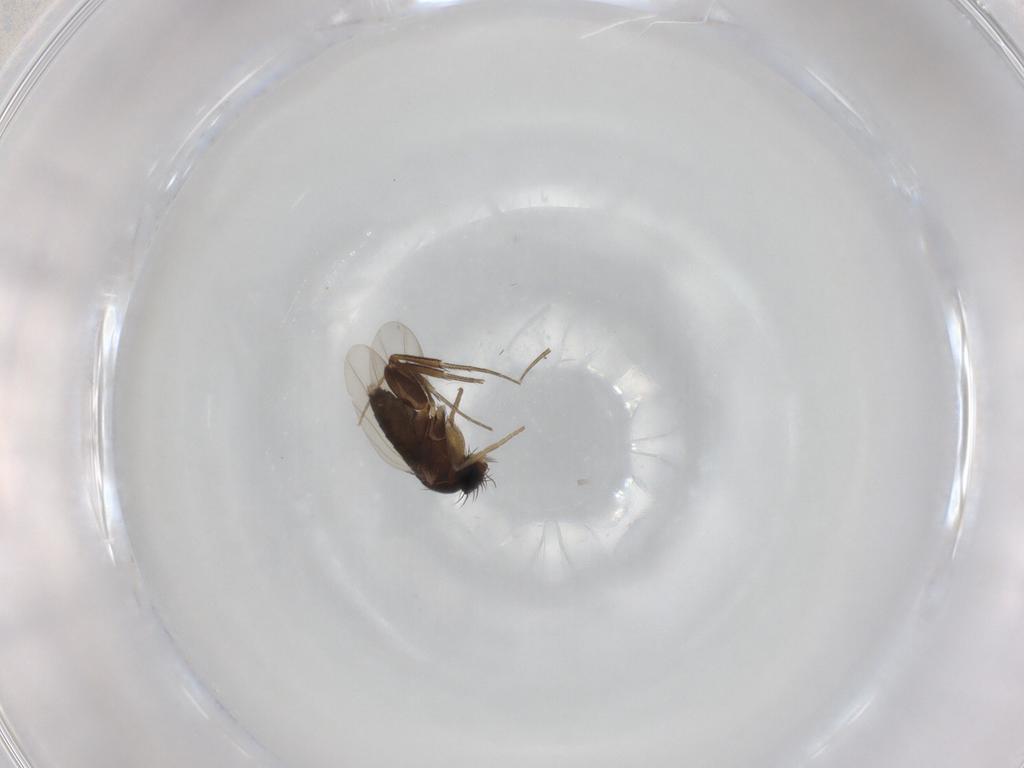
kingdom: Animalia
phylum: Arthropoda
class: Insecta
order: Diptera
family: Phoridae
